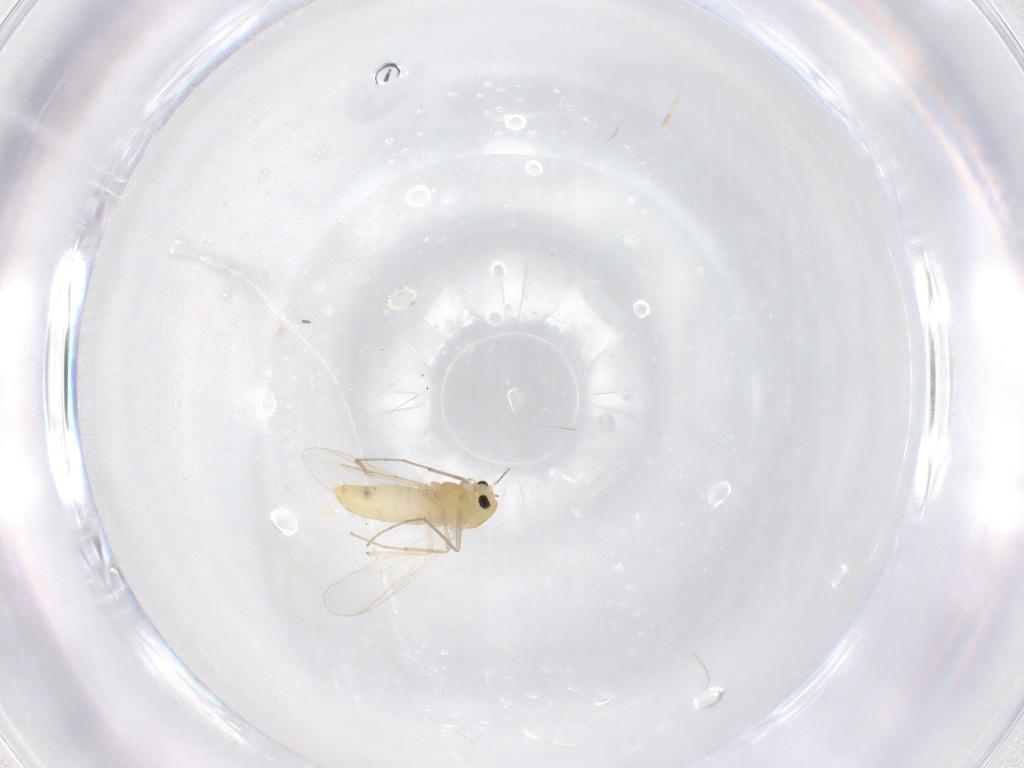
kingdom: Animalia
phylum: Arthropoda
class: Insecta
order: Diptera
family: Chironomidae
